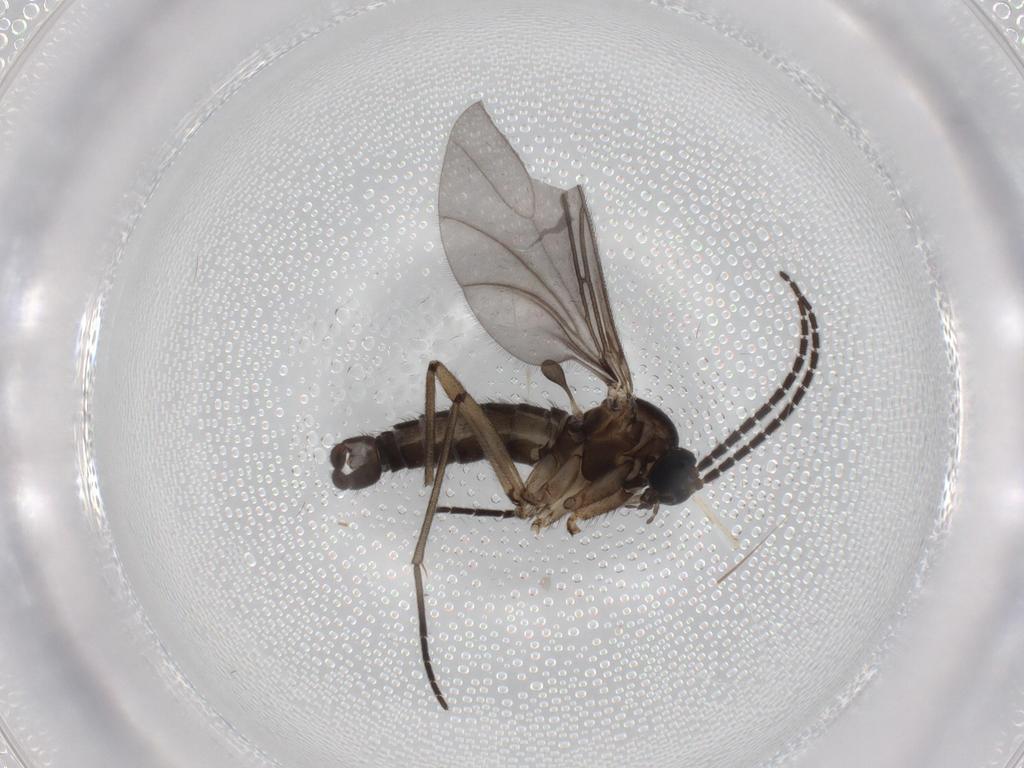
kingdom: Animalia
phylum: Arthropoda
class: Insecta
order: Diptera
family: Sciaridae
